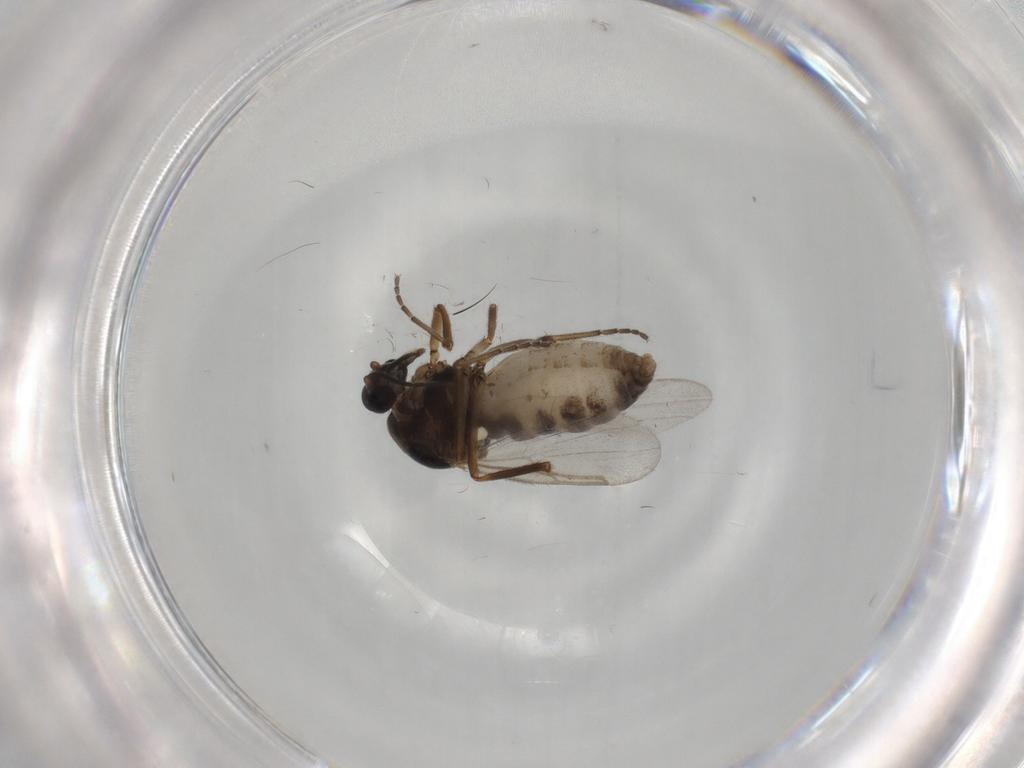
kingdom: Animalia
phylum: Arthropoda
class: Insecta
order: Diptera
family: Ceratopogonidae
